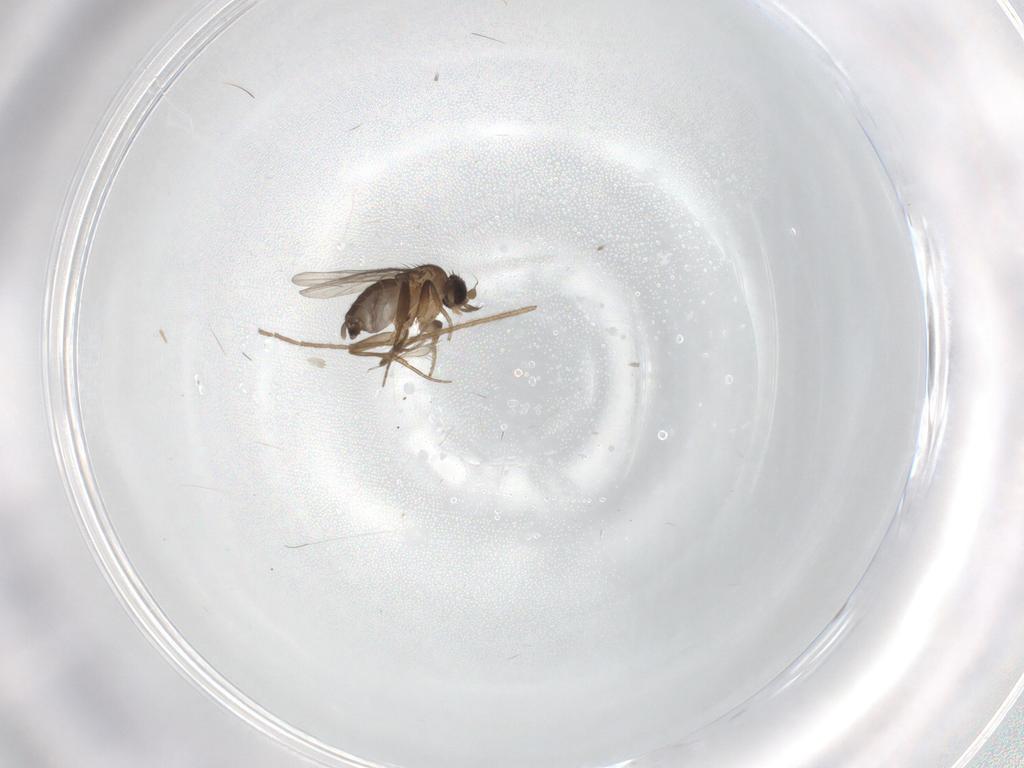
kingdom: Animalia
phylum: Arthropoda
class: Insecta
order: Diptera
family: Phoridae
